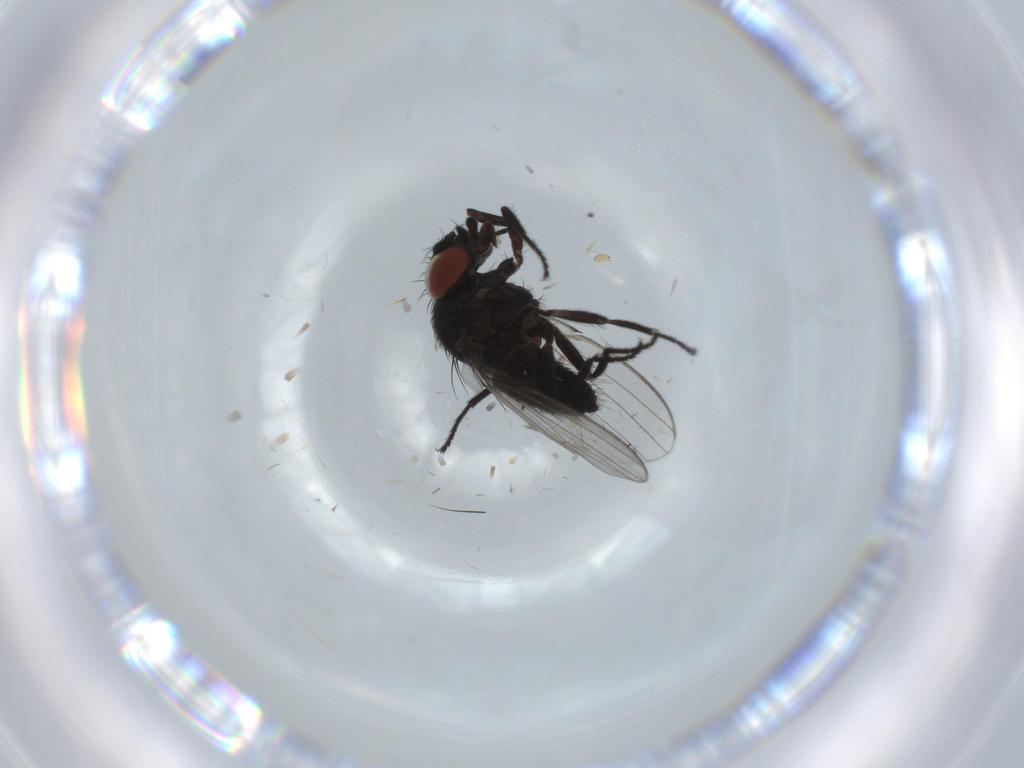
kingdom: Animalia
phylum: Arthropoda
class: Insecta
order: Diptera
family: Milichiidae
